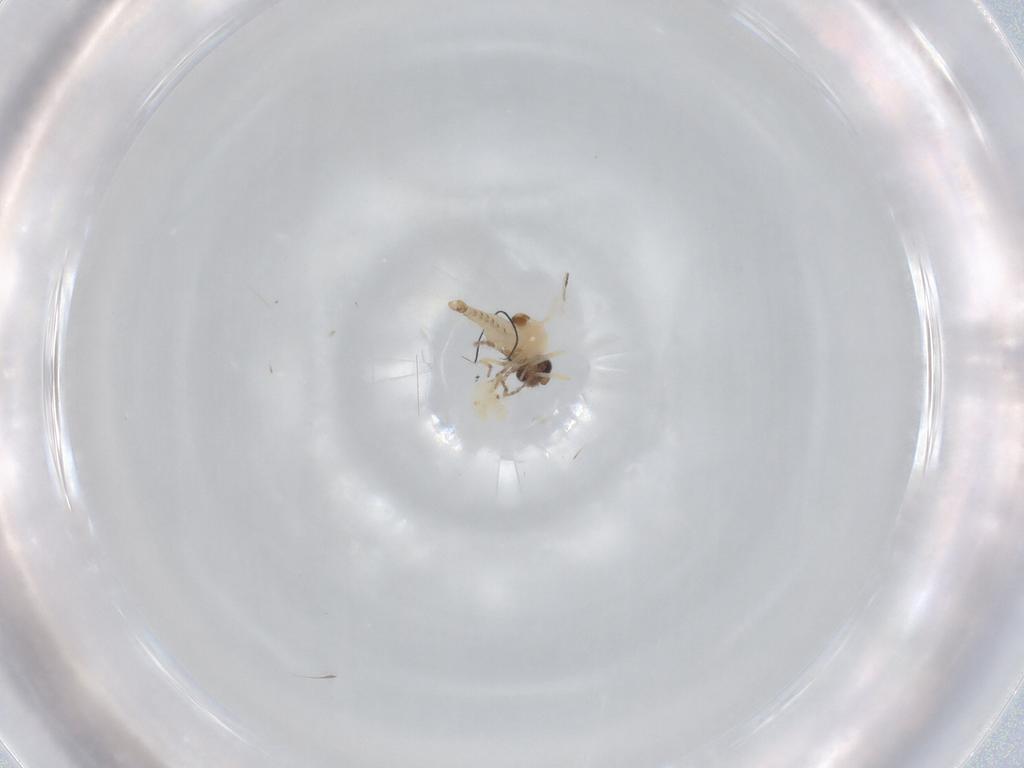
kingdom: Animalia
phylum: Arthropoda
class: Insecta
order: Diptera
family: Ceratopogonidae
